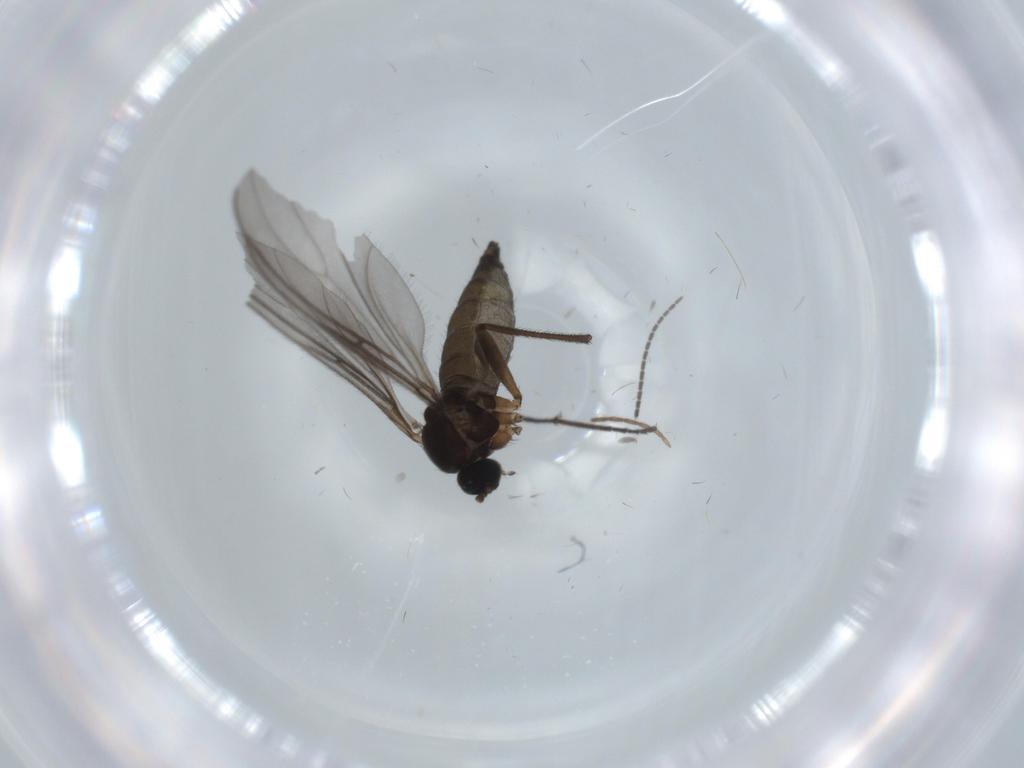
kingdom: Animalia
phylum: Arthropoda
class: Insecta
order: Diptera
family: Sciaridae
